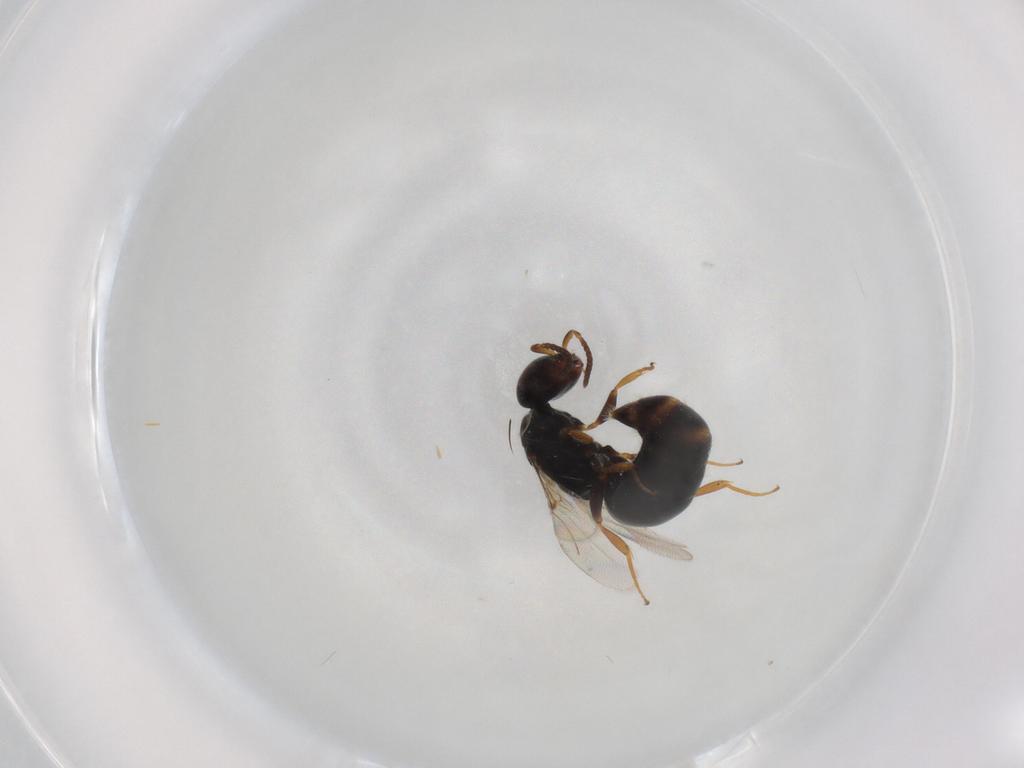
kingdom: Animalia
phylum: Arthropoda
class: Insecta
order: Hymenoptera
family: Bethylidae
